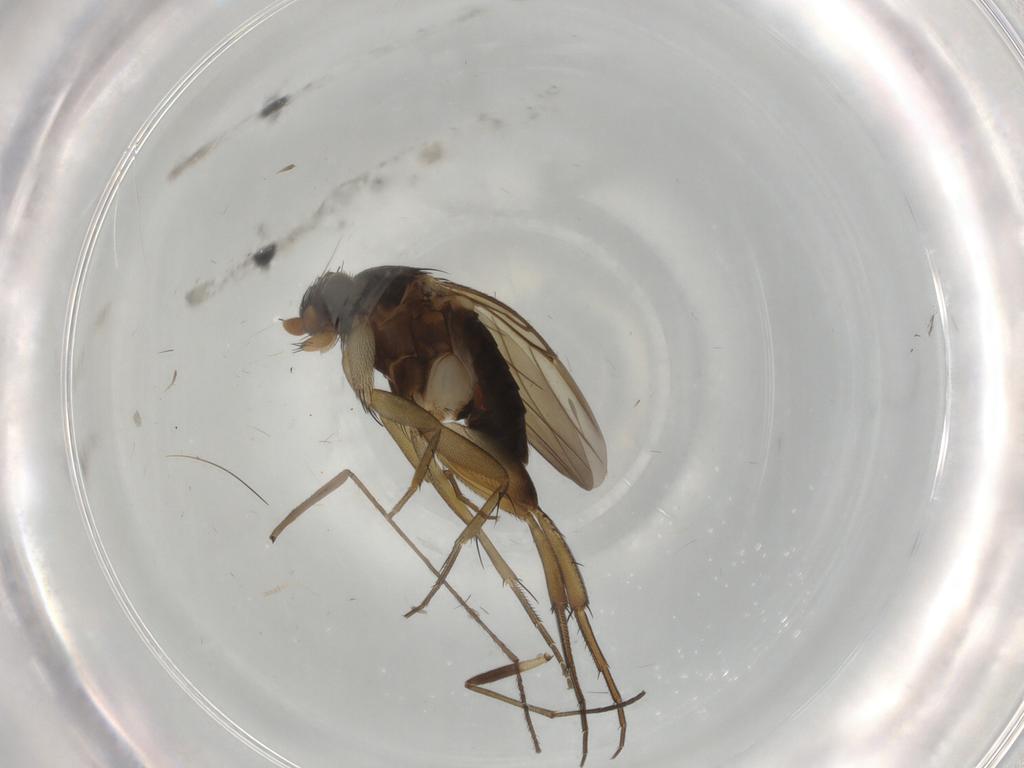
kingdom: Animalia
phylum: Arthropoda
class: Insecta
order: Diptera
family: Phoridae
